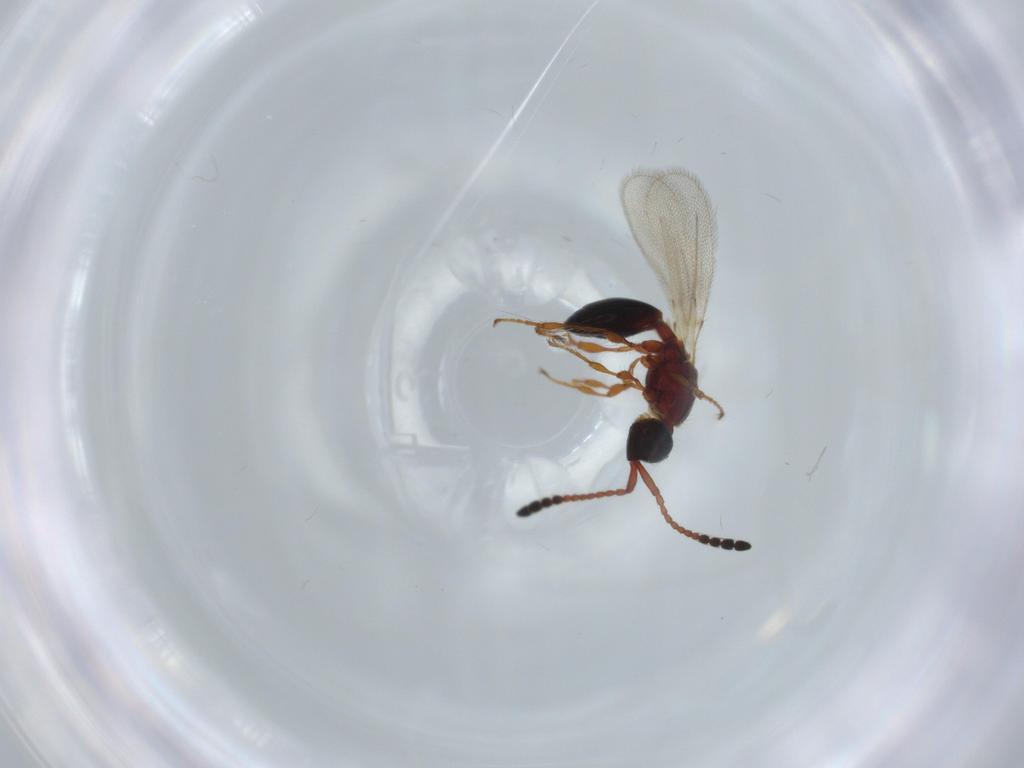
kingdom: Animalia
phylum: Arthropoda
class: Insecta
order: Hymenoptera
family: Diapriidae
